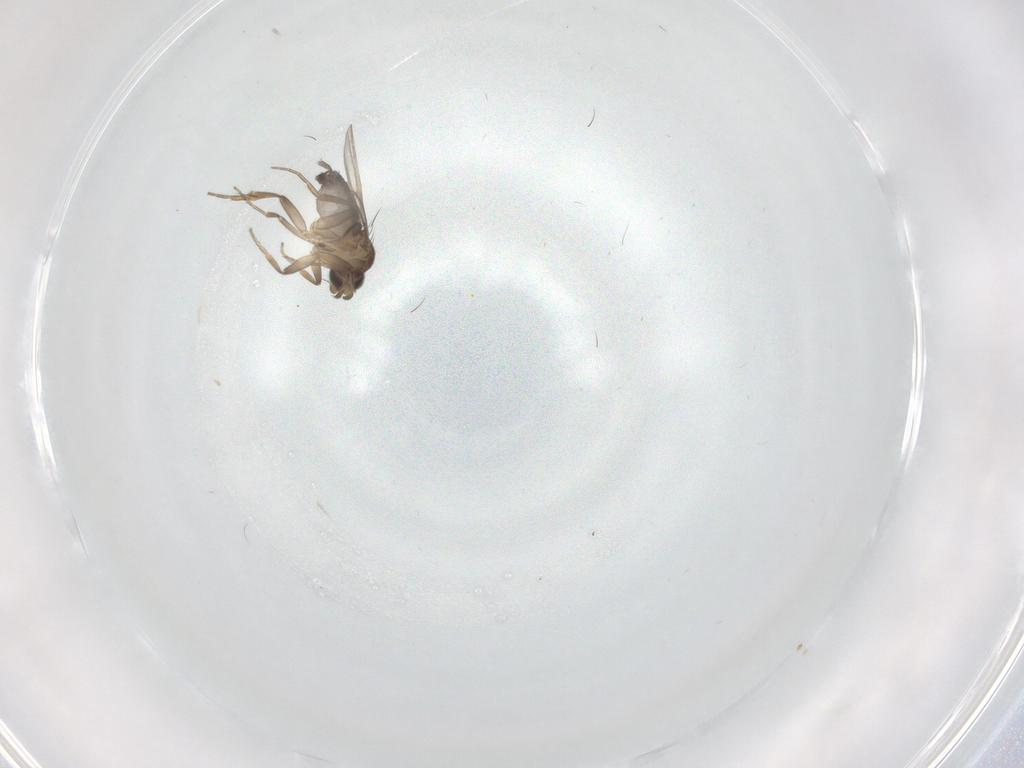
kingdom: Animalia
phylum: Arthropoda
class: Insecta
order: Diptera
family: Phoridae
